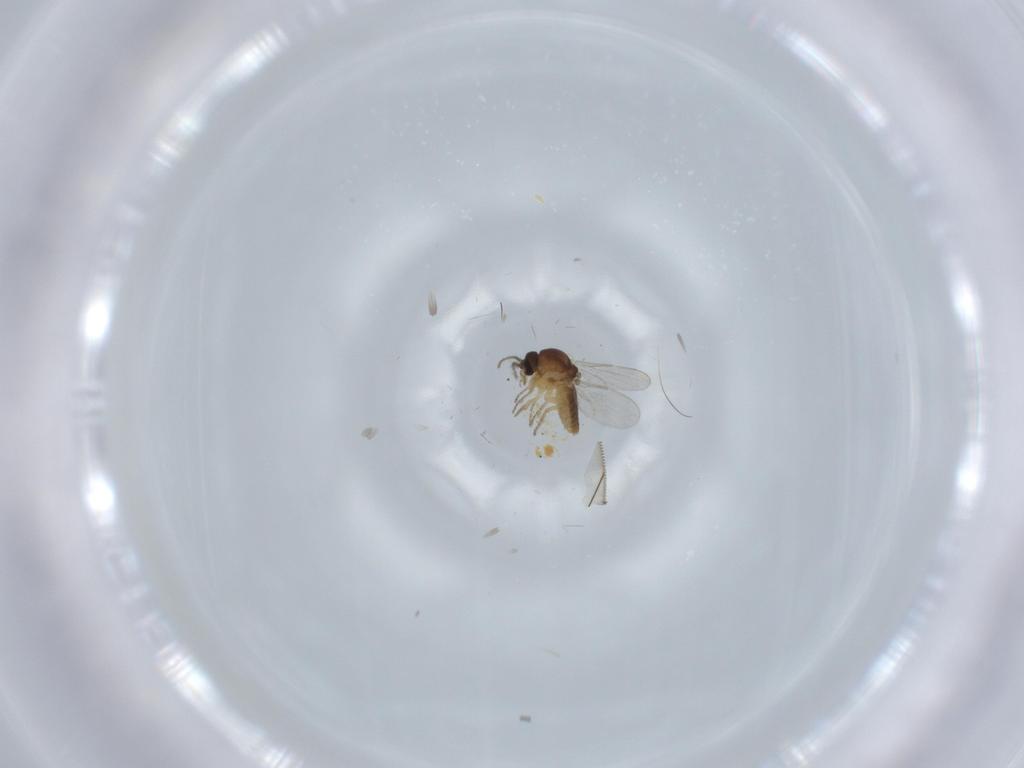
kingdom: Animalia
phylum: Arthropoda
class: Insecta
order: Diptera
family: Ceratopogonidae
